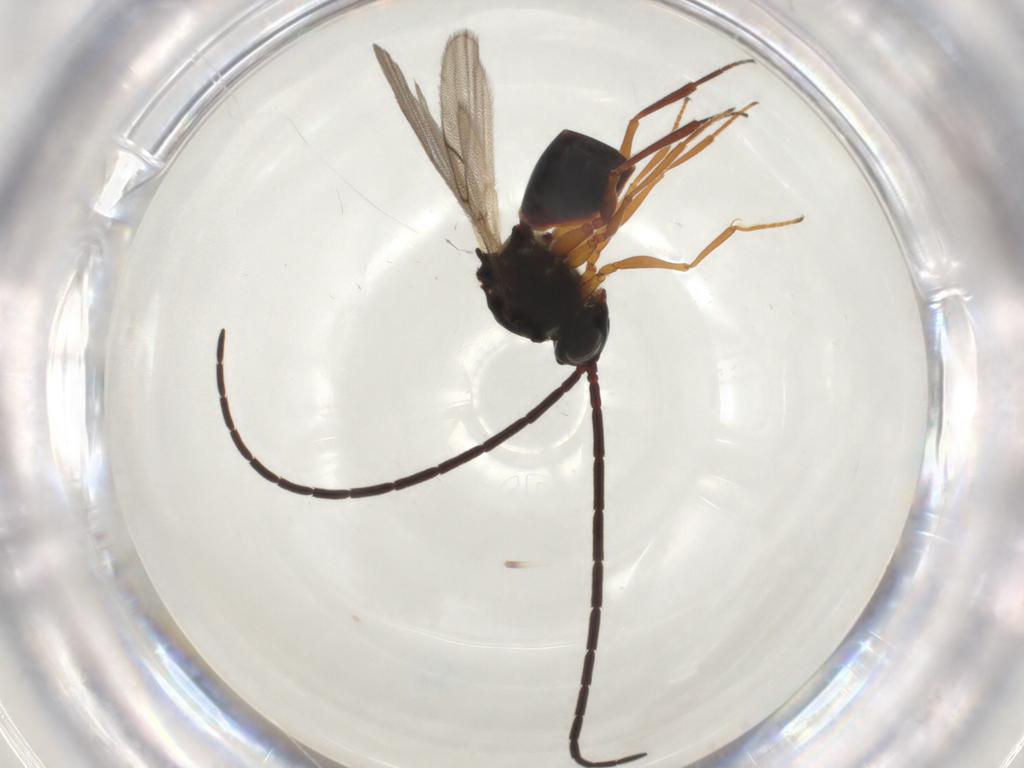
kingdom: Animalia
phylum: Arthropoda
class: Insecta
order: Hymenoptera
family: Figitidae
